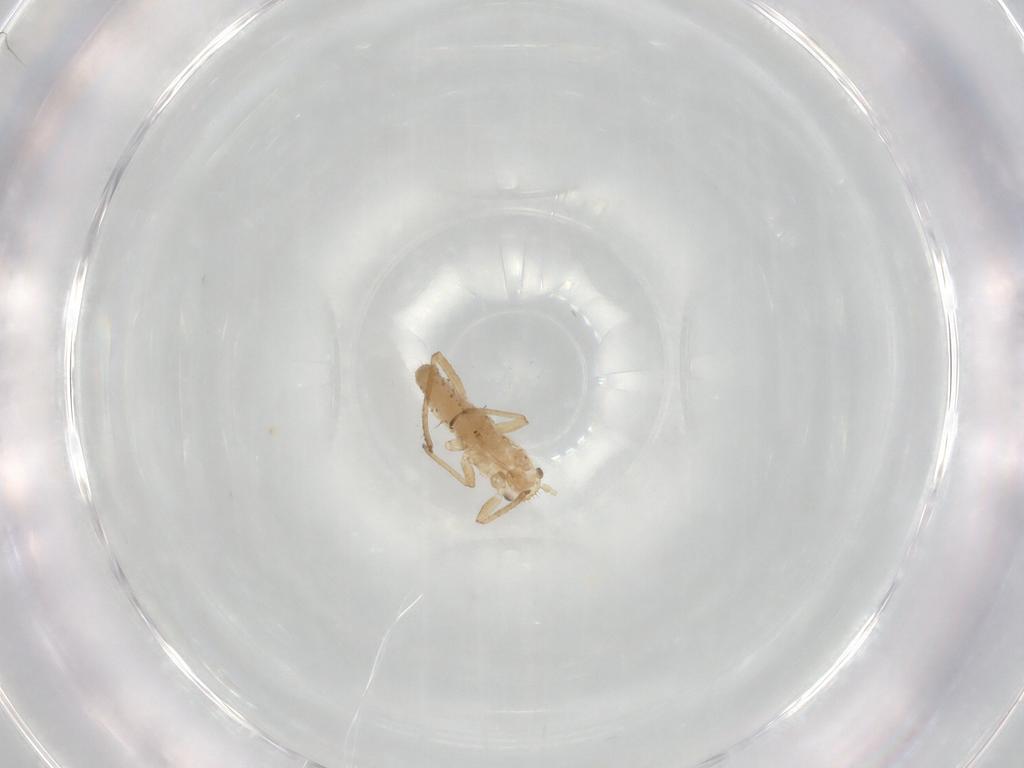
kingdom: Animalia
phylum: Arthropoda
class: Insecta
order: Hemiptera
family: Aphididae
